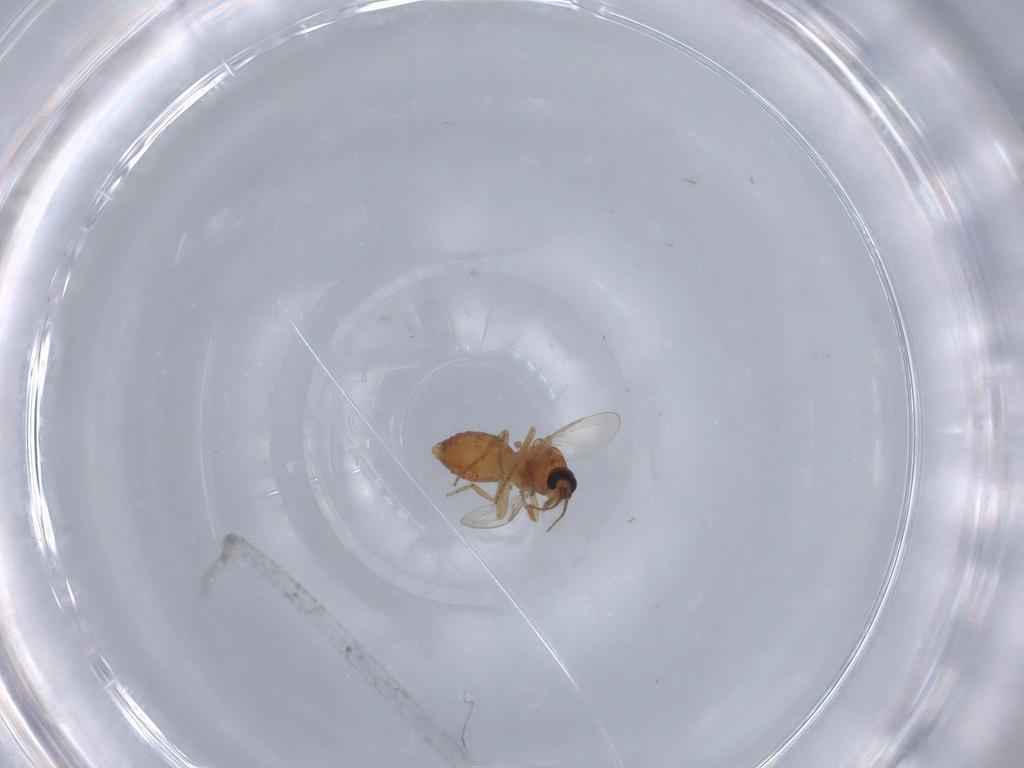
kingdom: Animalia
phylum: Arthropoda
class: Insecta
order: Diptera
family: Ceratopogonidae
